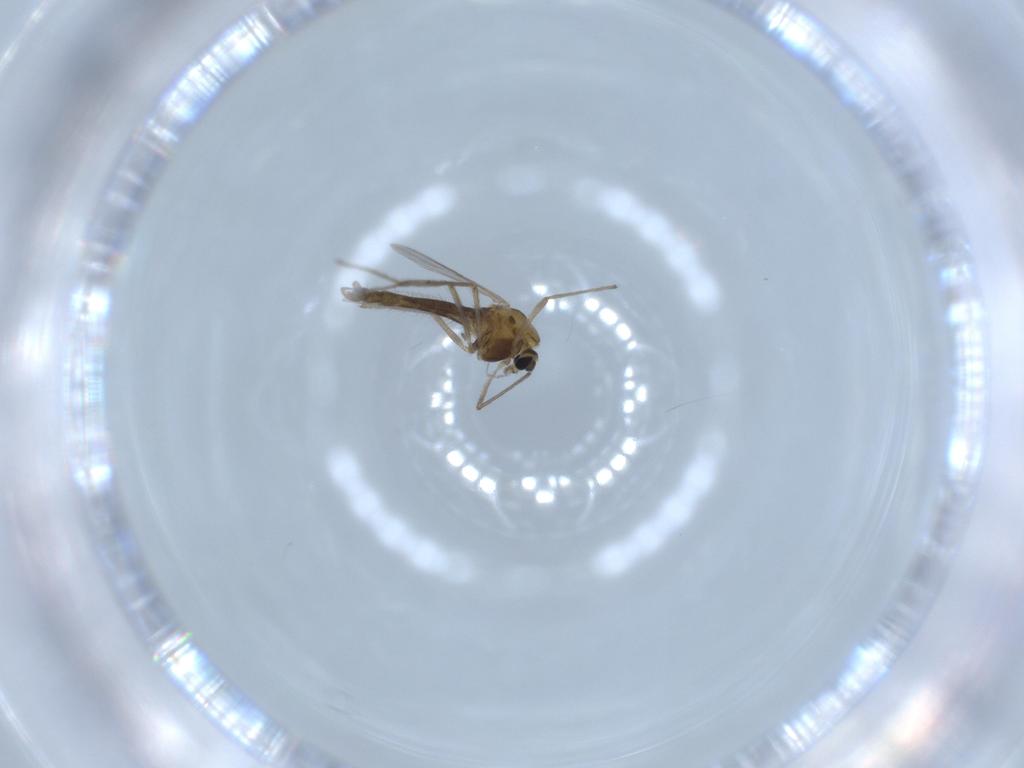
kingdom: Animalia
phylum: Arthropoda
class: Insecta
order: Diptera
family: Chironomidae
